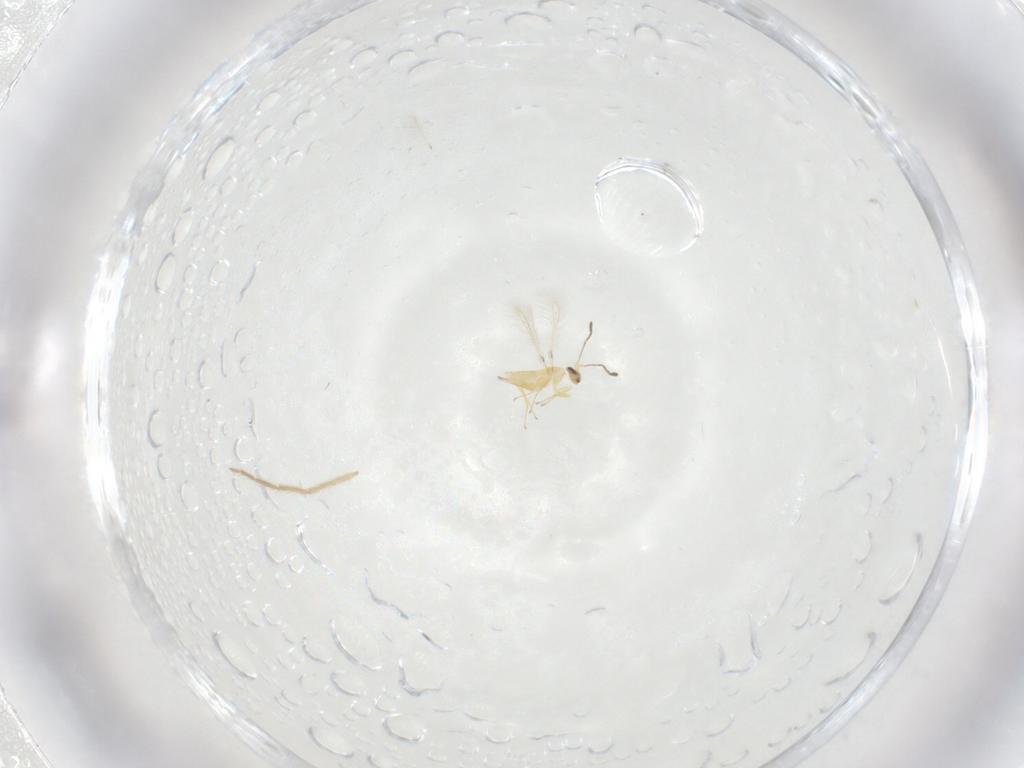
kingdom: Animalia
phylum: Arthropoda
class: Insecta
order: Hymenoptera
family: Mymaridae
